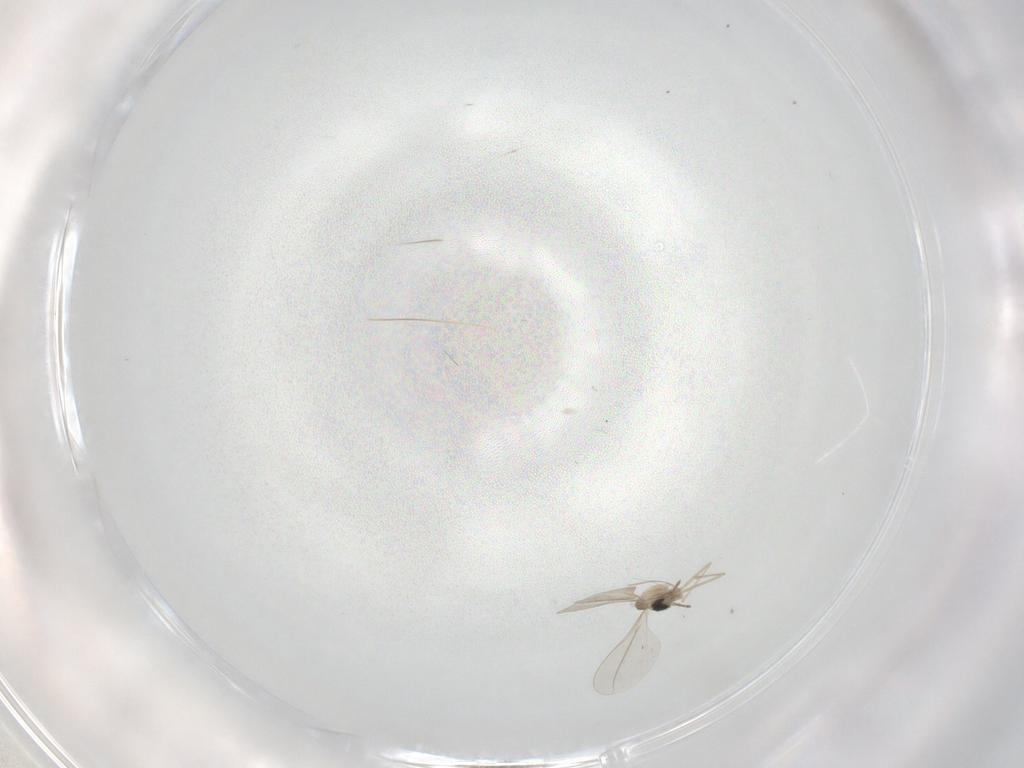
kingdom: Animalia
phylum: Arthropoda
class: Insecta
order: Diptera
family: Cecidomyiidae
